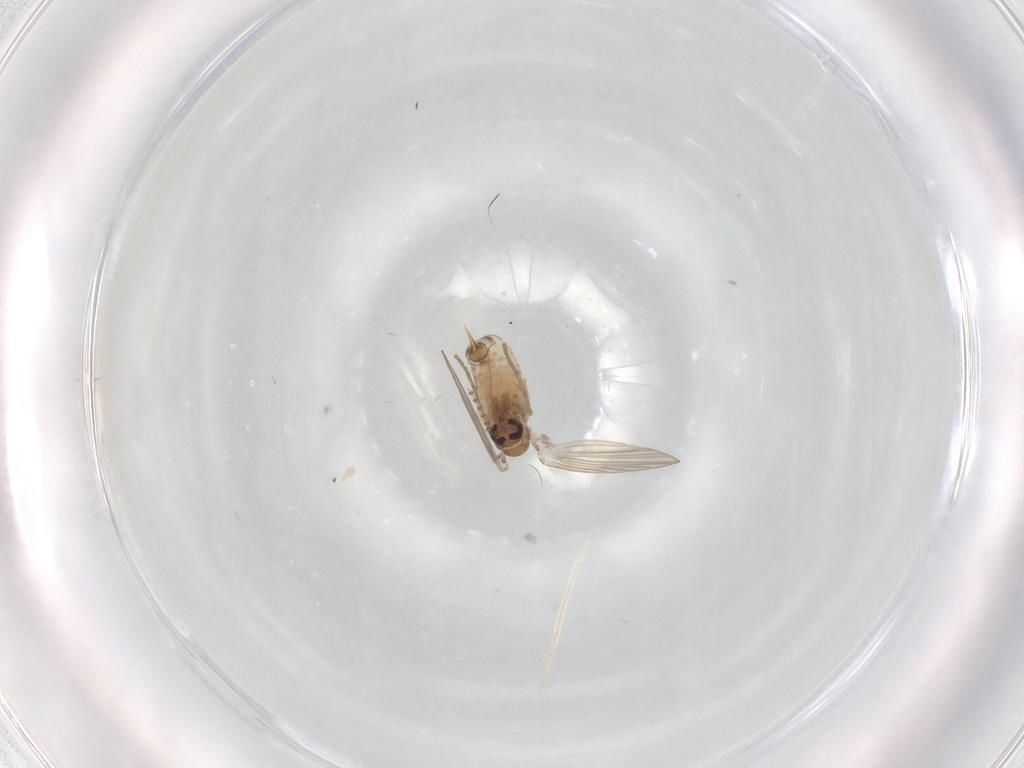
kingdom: Animalia
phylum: Arthropoda
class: Insecta
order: Diptera
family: Psychodidae
